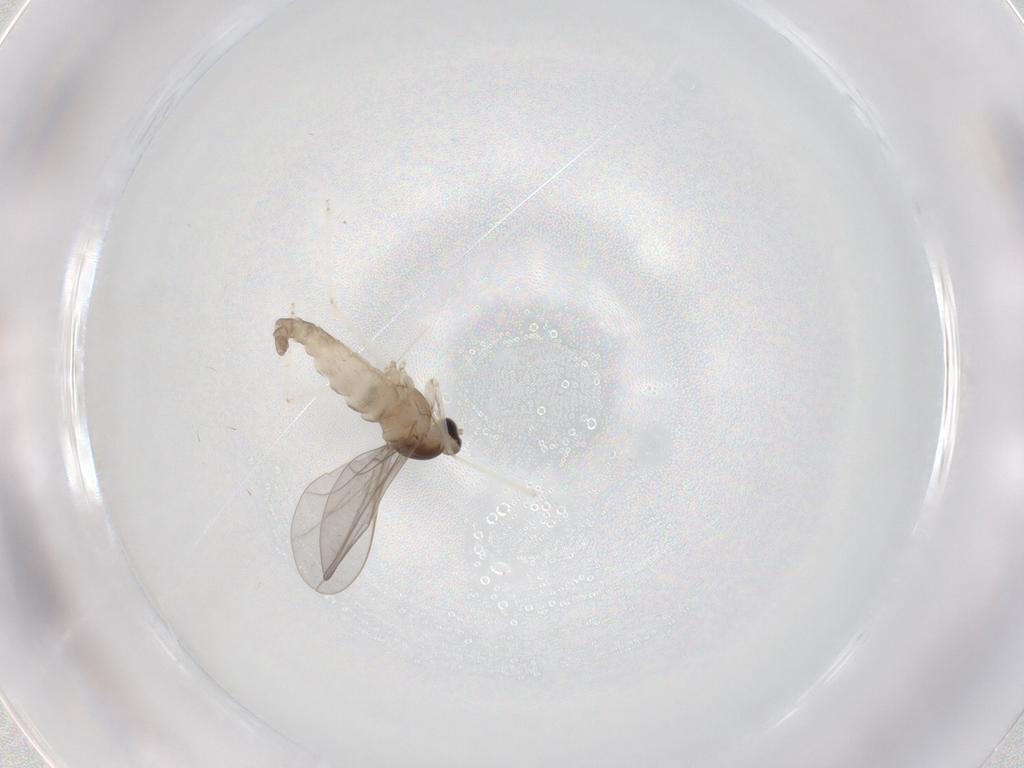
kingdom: Animalia
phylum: Arthropoda
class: Insecta
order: Diptera
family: Cecidomyiidae
